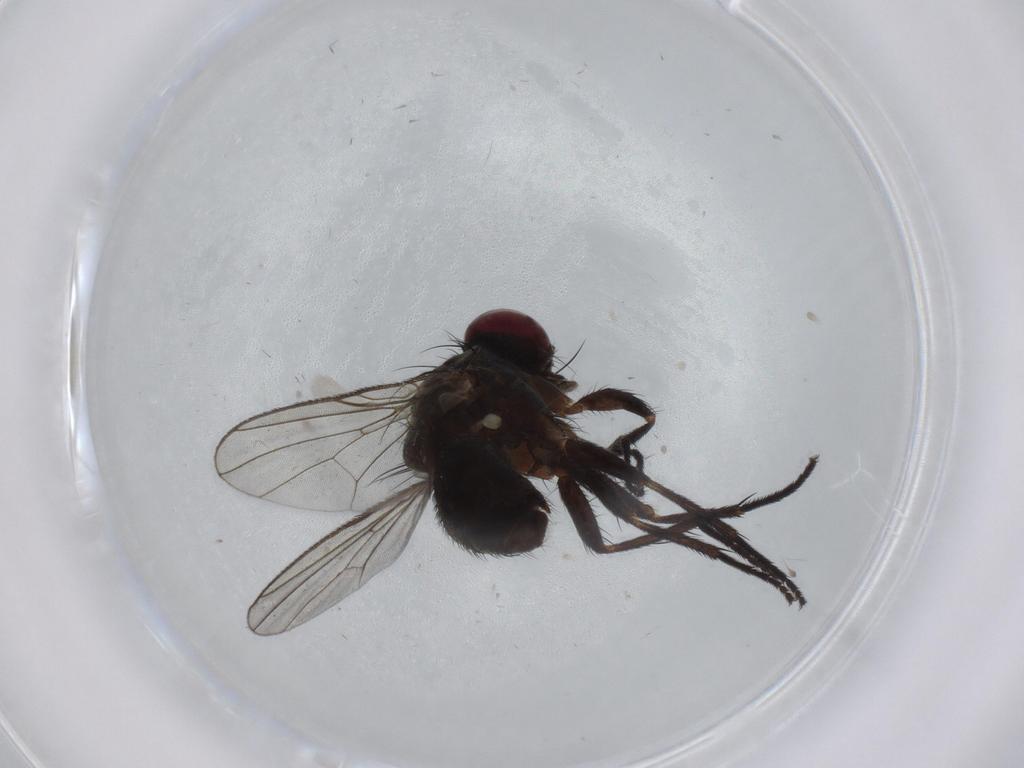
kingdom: Animalia
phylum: Arthropoda
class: Insecta
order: Diptera
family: Muscidae
